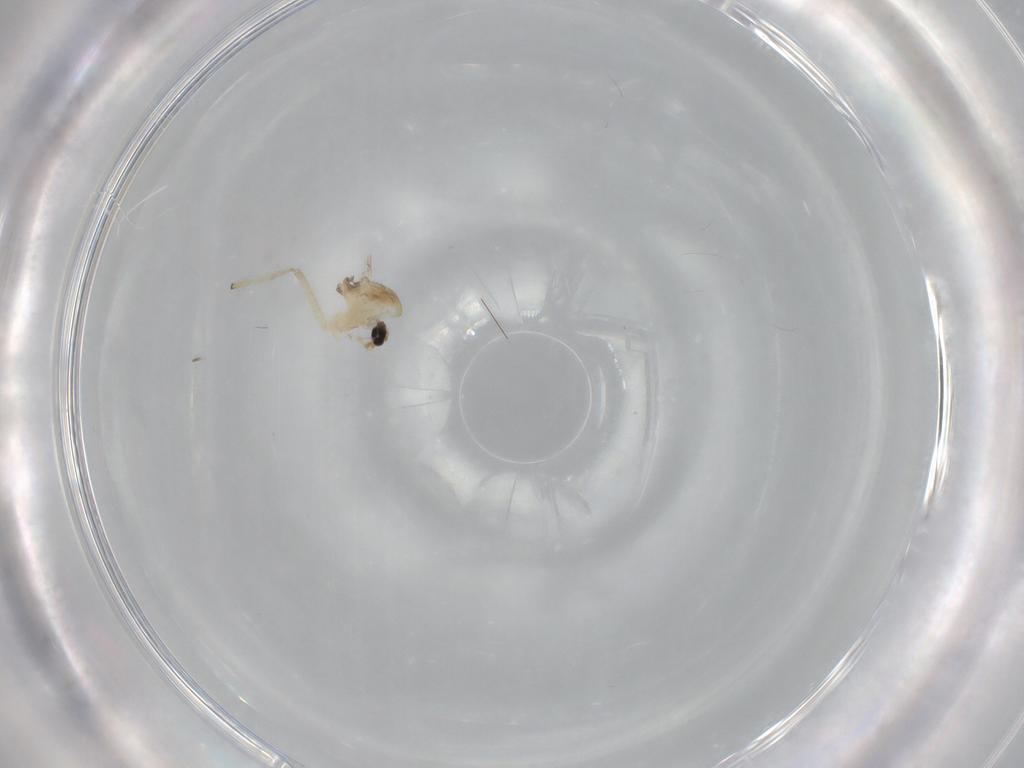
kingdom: Animalia
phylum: Arthropoda
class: Insecta
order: Diptera
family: Chironomidae
